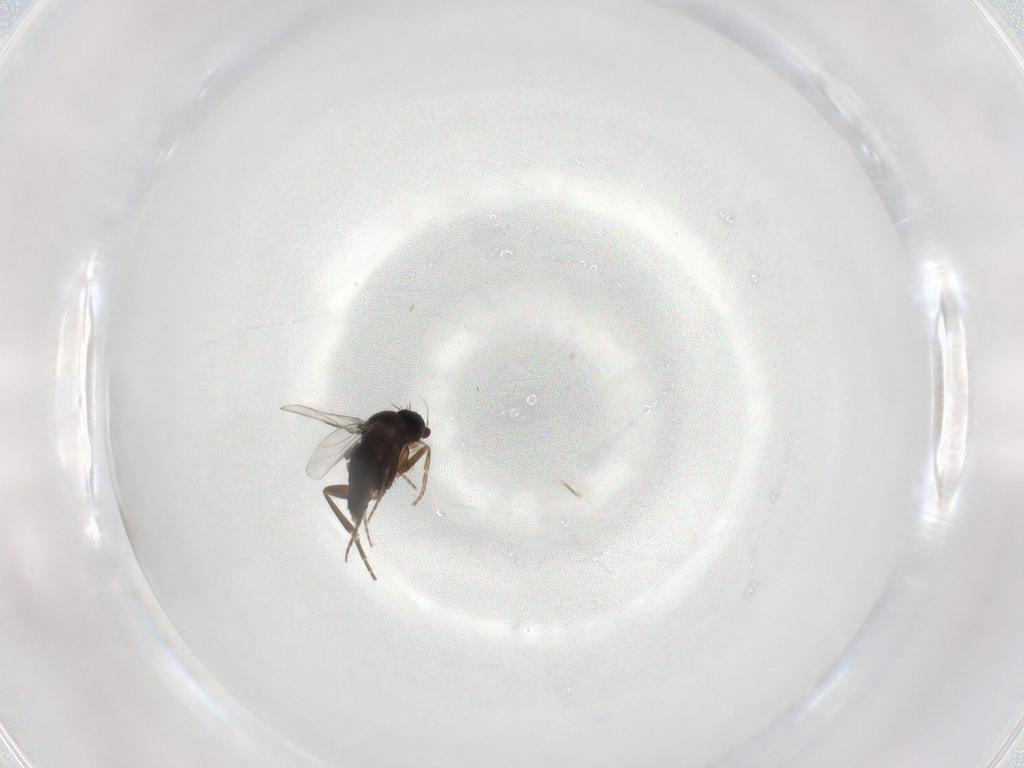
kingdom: Animalia
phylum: Arthropoda
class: Insecta
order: Diptera
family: Phoridae
